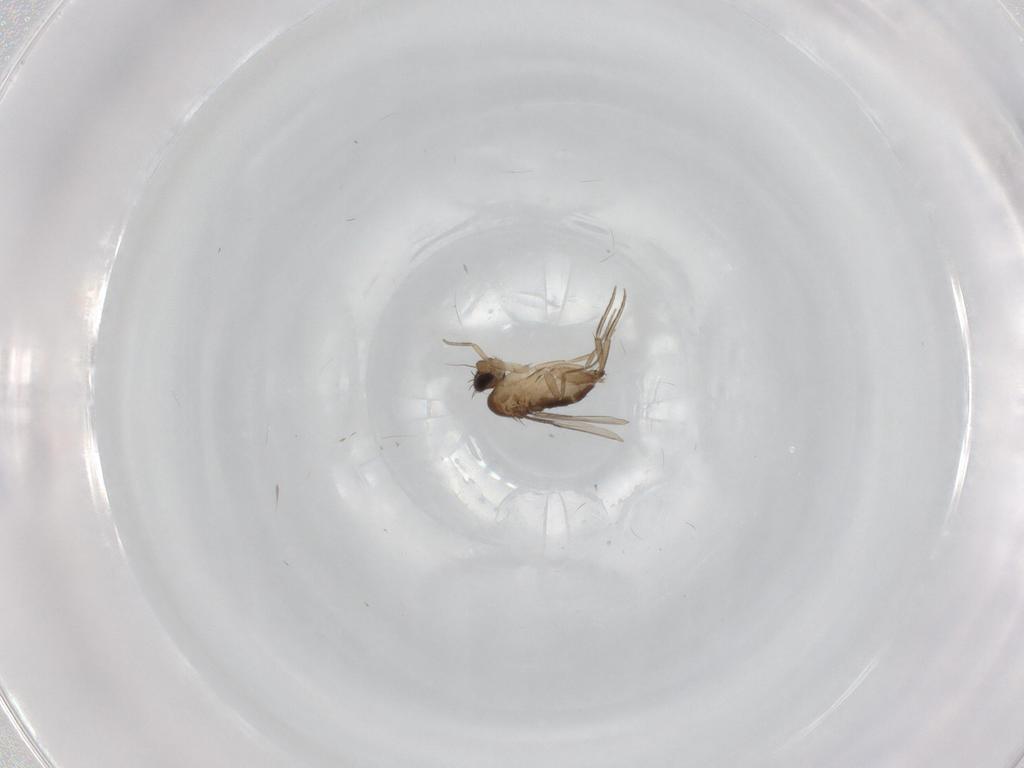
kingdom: Animalia
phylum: Arthropoda
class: Insecta
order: Diptera
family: Phoridae
